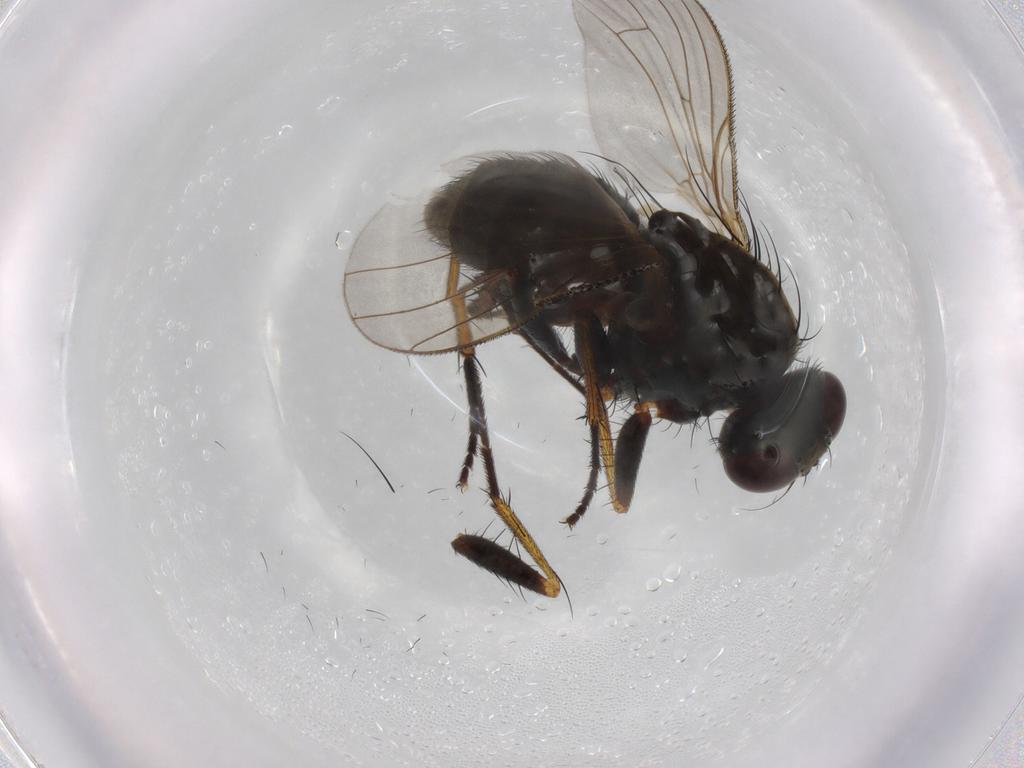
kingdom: Animalia
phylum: Arthropoda
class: Insecta
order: Diptera
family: Muscidae
